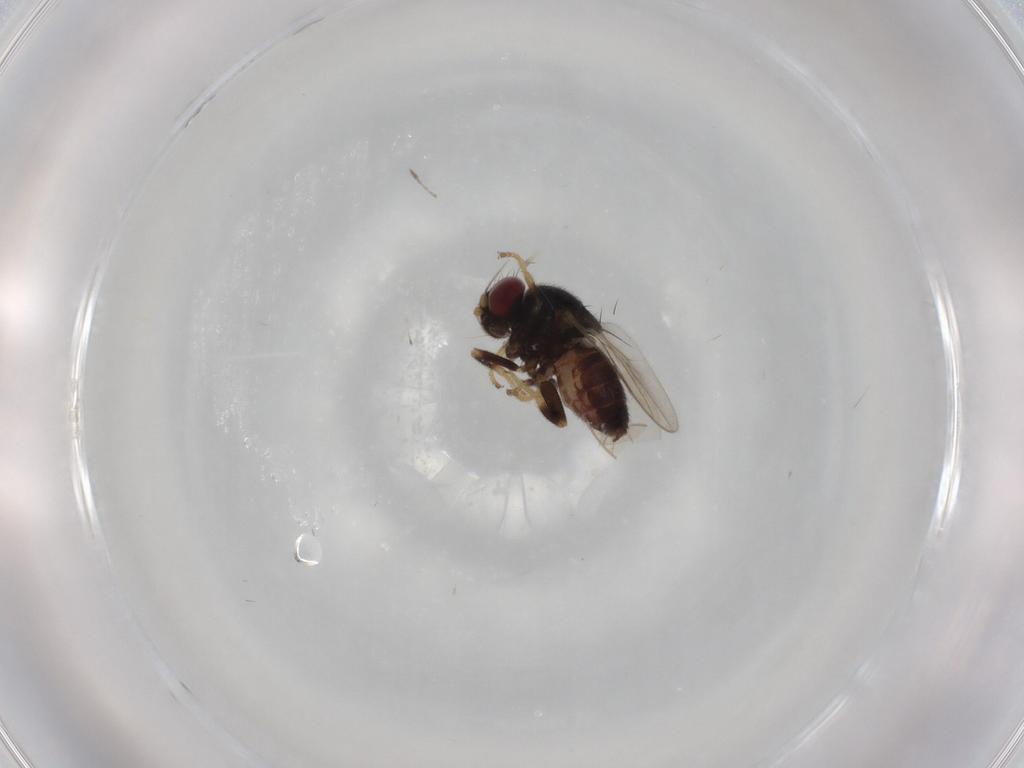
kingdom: Animalia
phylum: Arthropoda
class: Insecta
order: Diptera
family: Chloropidae
